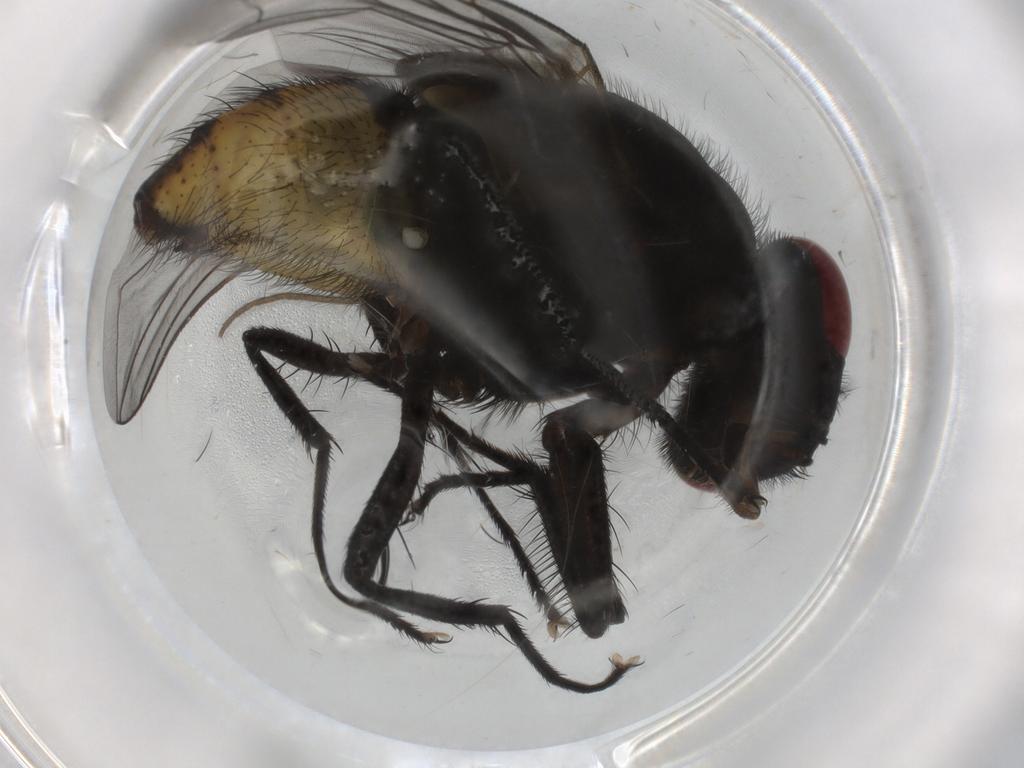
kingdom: Animalia
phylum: Arthropoda
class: Insecta
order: Diptera
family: Muscidae
